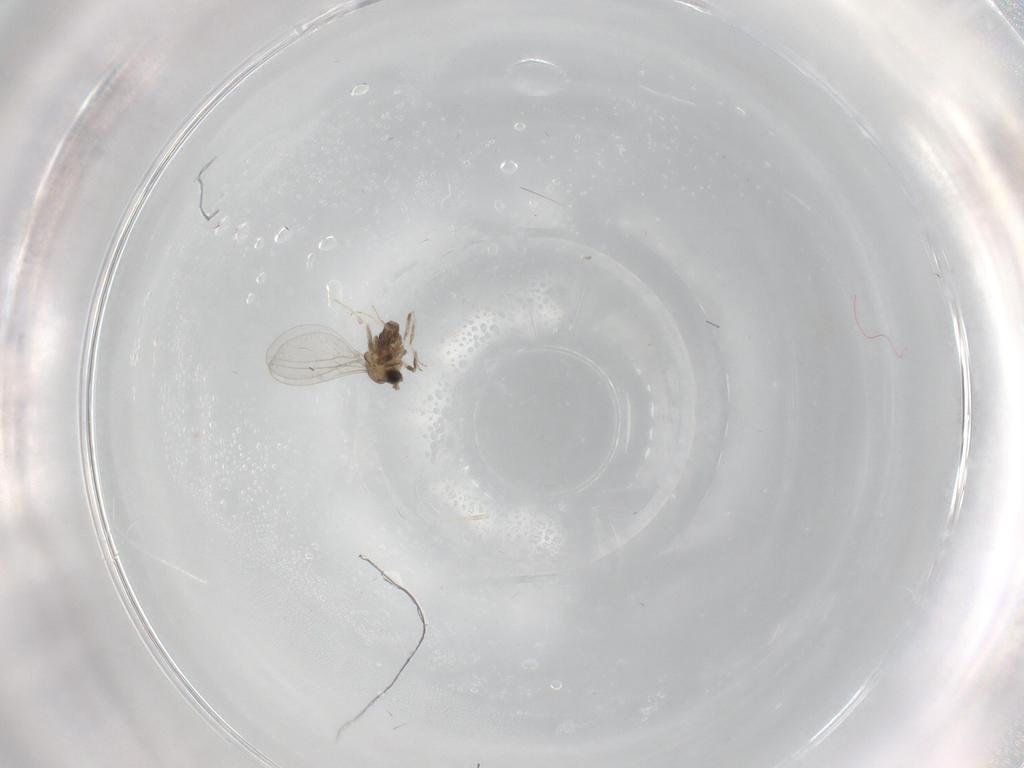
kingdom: Animalia
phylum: Arthropoda
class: Insecta
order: Diptera
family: Cecidomyiidae
